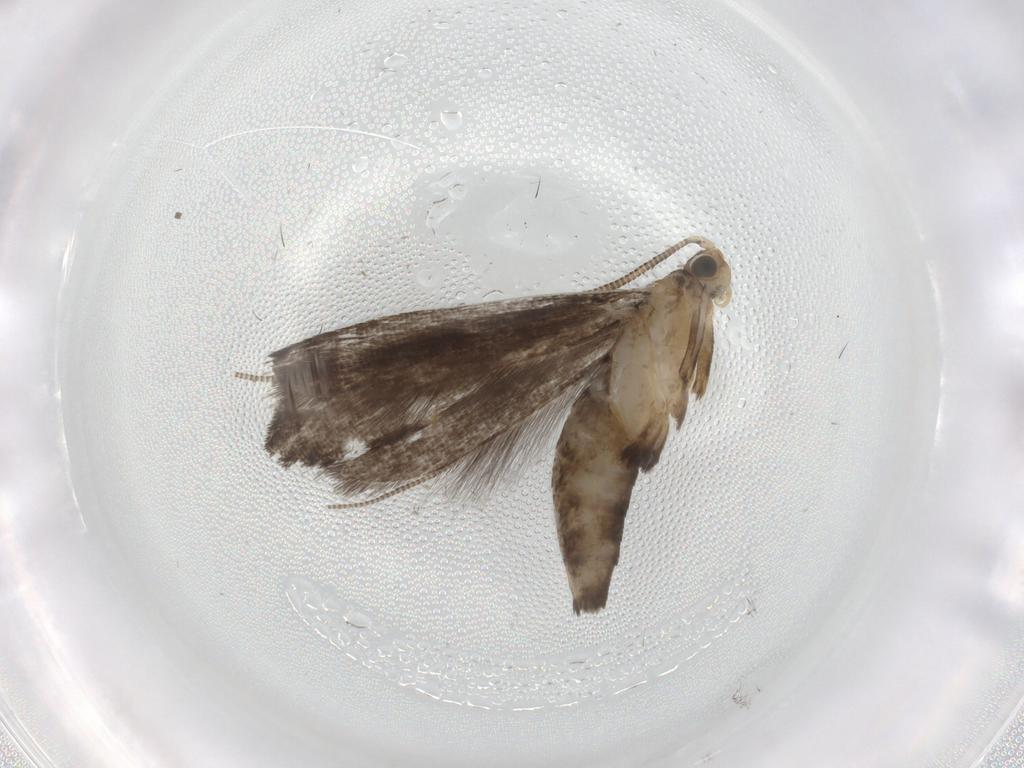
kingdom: Animalia
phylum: Arthropoda
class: Insecta
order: Lepidoptera
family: Tineidae
